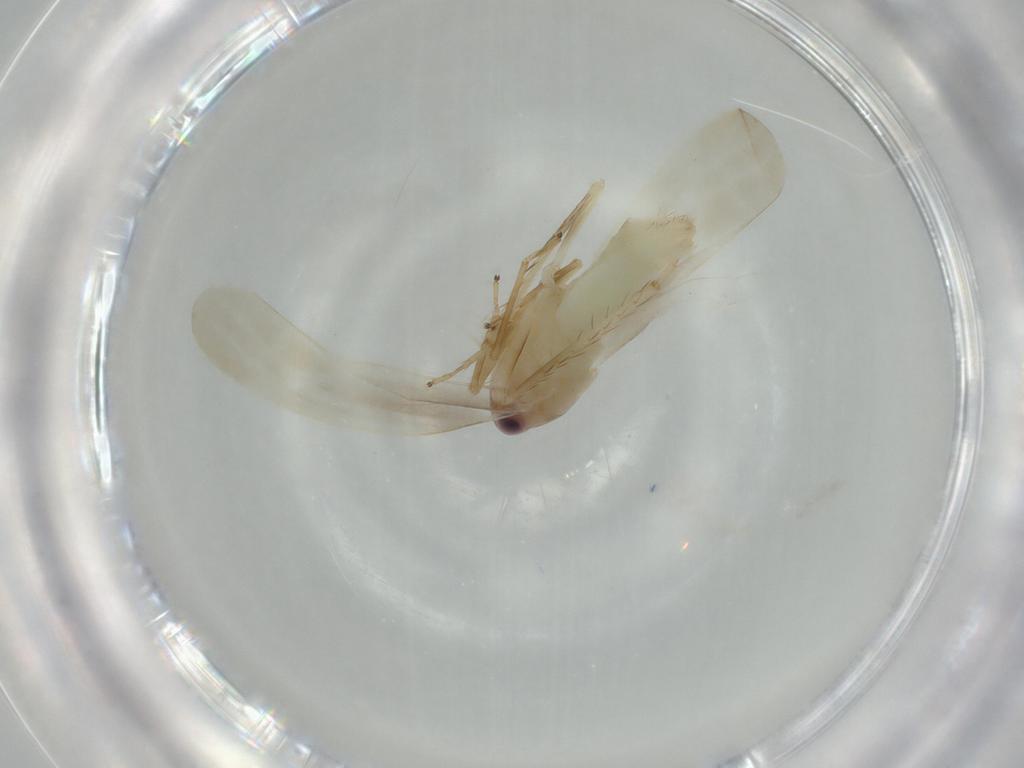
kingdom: Animalia
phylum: Arthropoda
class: Insecta
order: Hemiptera
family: Cicadellidae
